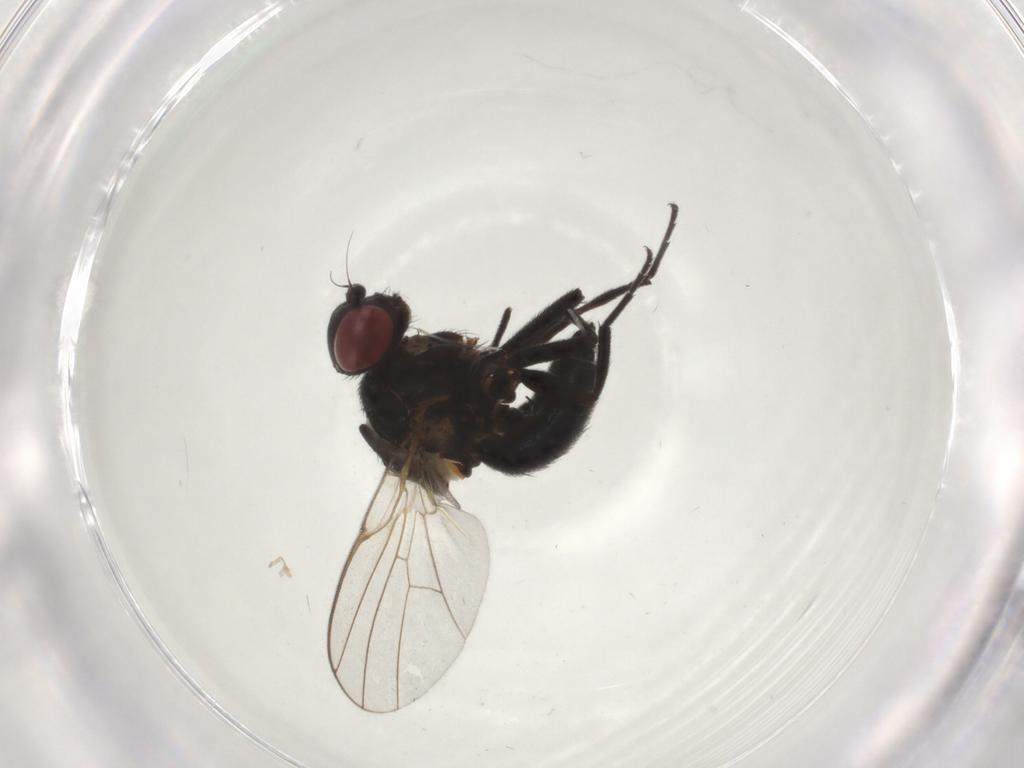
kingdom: Animalia
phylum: Arthropoda
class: Insecta
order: Diptera
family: Agromyzidae
